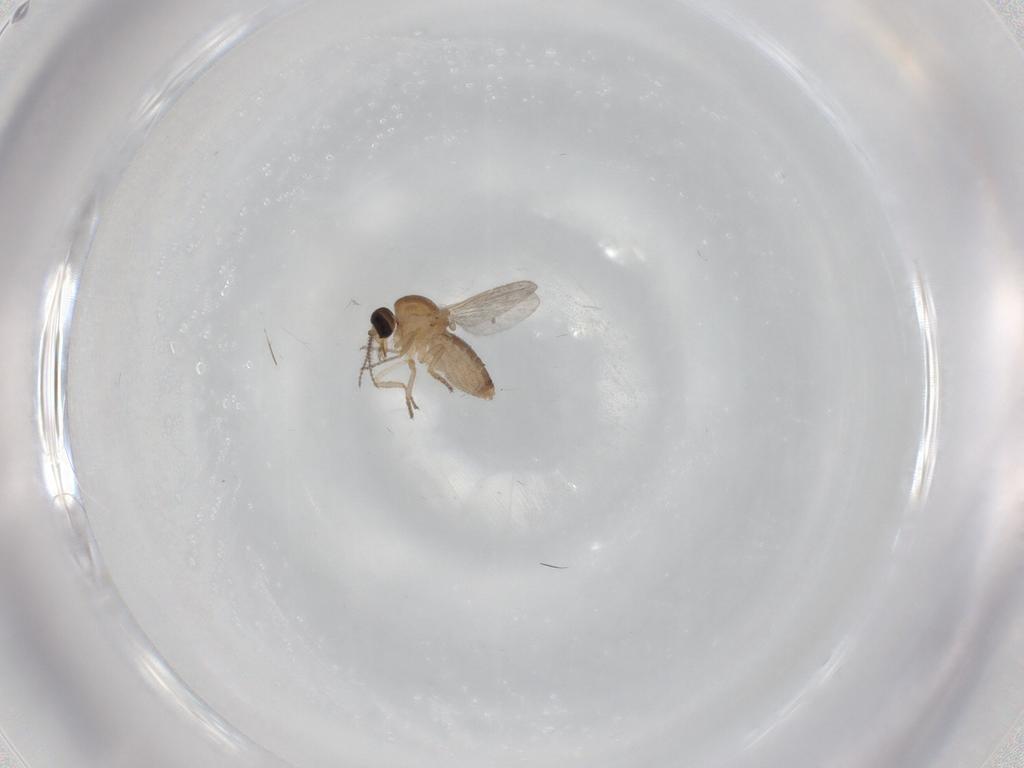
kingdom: Animalia
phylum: Arthropoda
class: Insecta
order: Diptera
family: Ceratopogonidae
